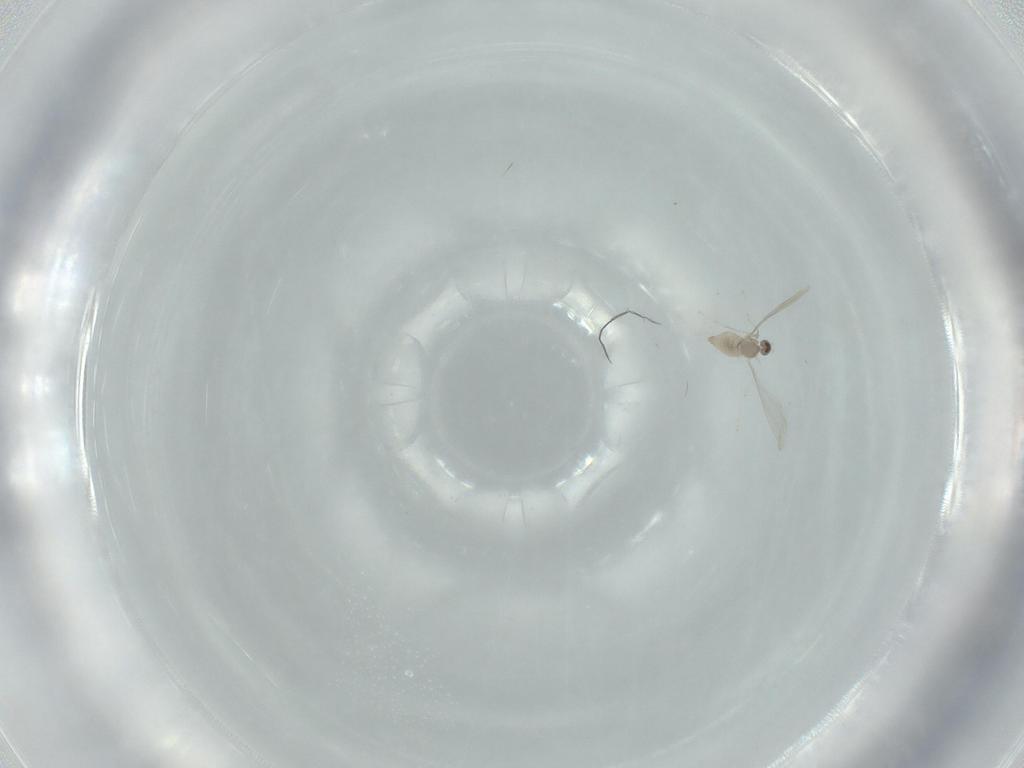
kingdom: Animalia
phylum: Arthropoda
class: Insecta
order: Diptera
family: Cecidomyiidae
